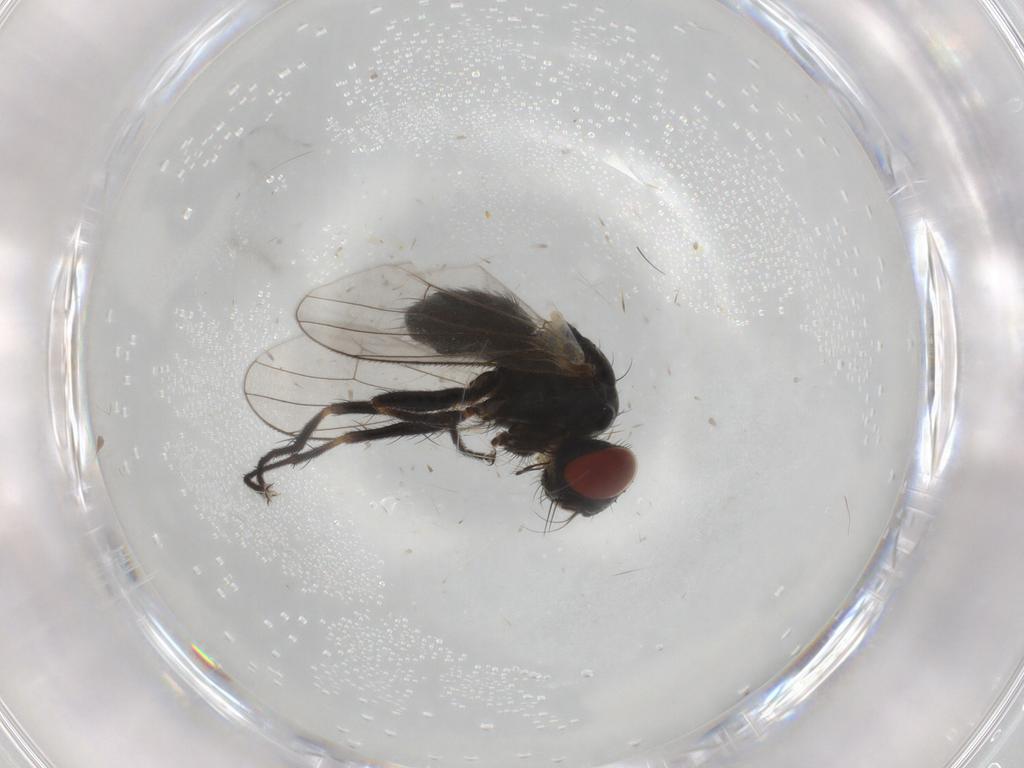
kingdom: Animalia
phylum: Arthropoda
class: Insecta
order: Diptera
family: Muscidae
